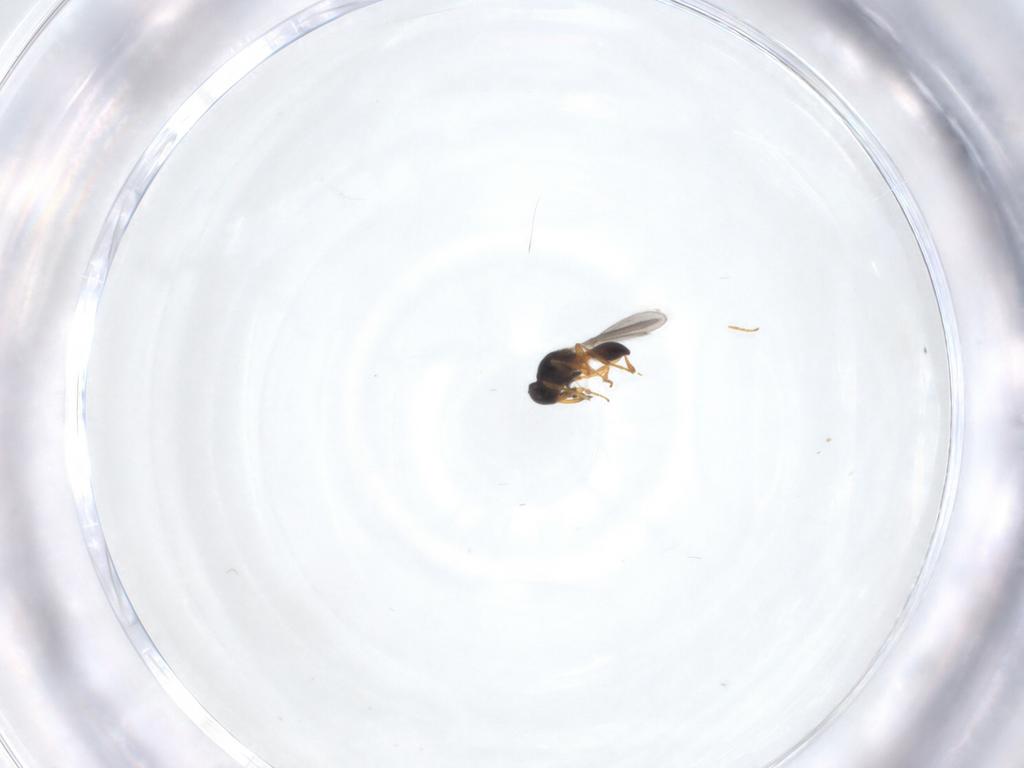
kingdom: Animalia
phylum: Arthropoda
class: Insecta
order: Hymenoptera
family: Platygastridae
